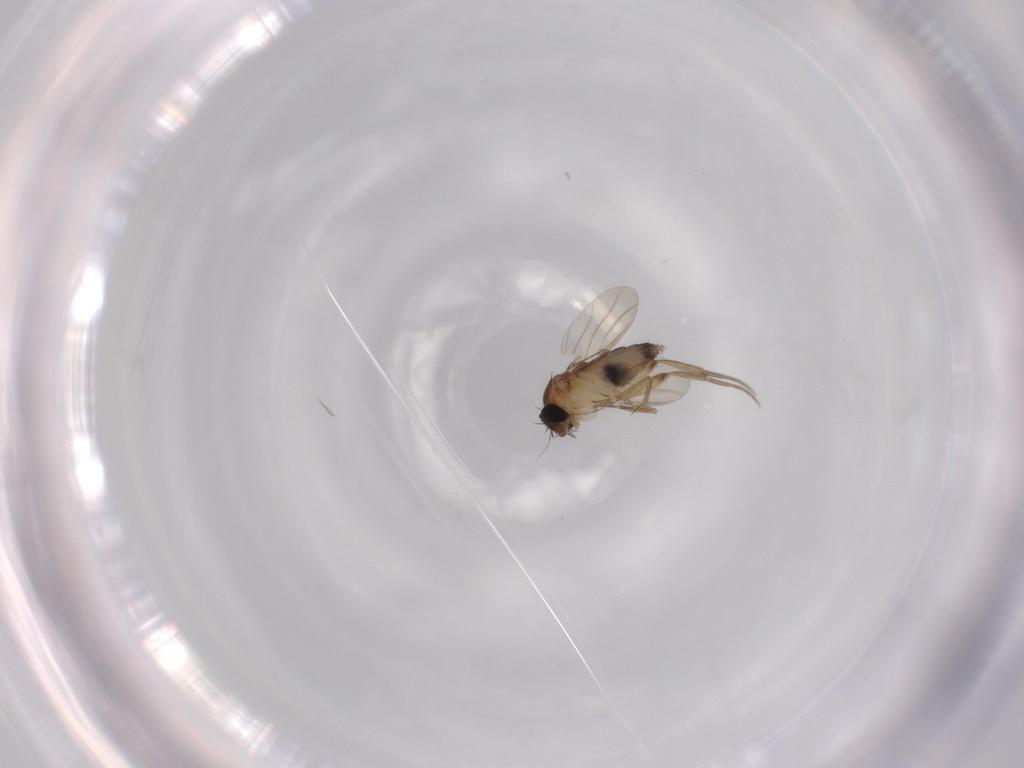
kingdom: Animalia
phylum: Arthropoda
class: Insecta
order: Diptera
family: Phoridae
